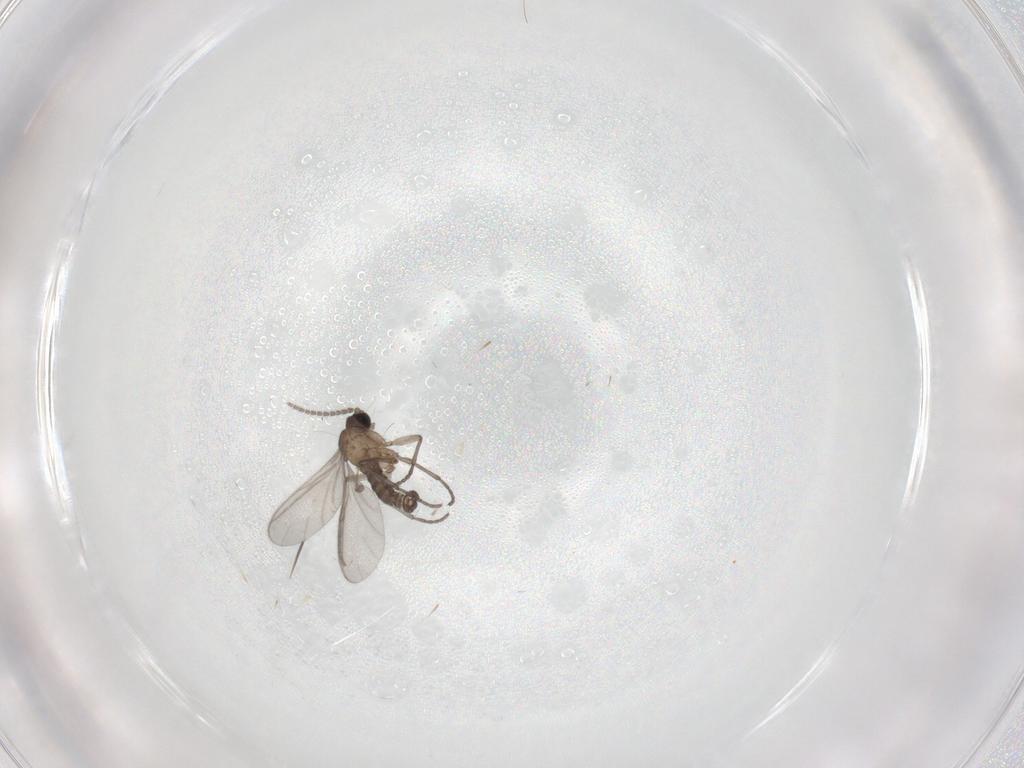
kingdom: Animalia
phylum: Arthropoda
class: Insecta
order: Diptera
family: Sciaridae
